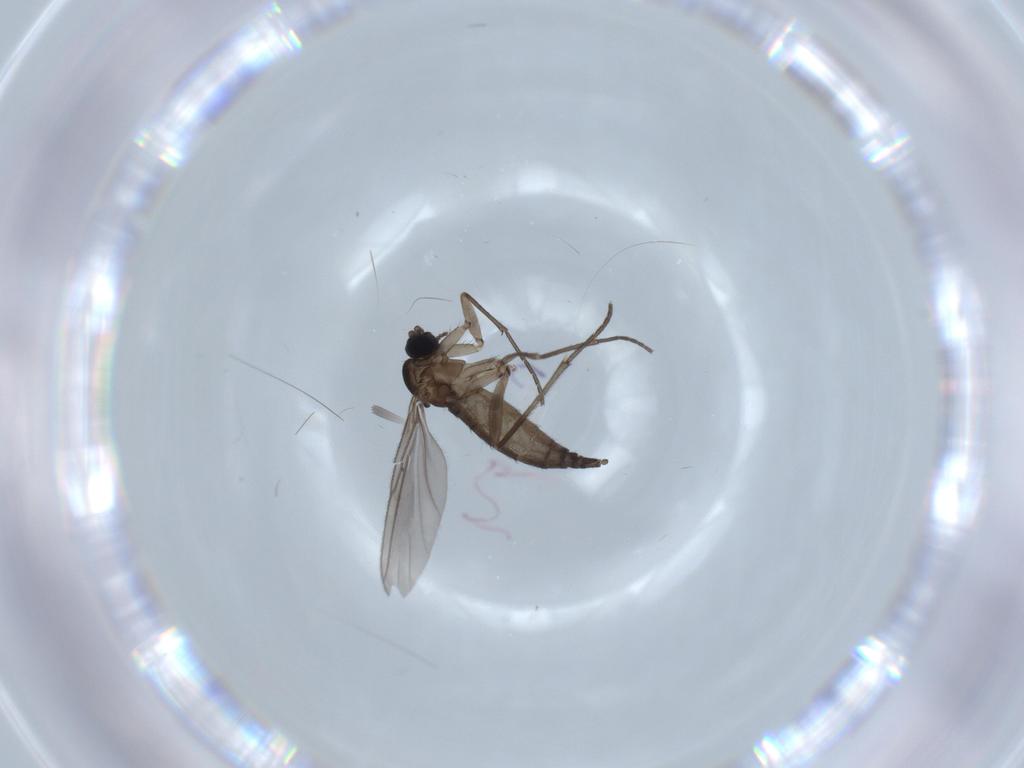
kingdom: Animalia
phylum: Arthropoda
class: Insecta
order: Diptera
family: Sciaridae
